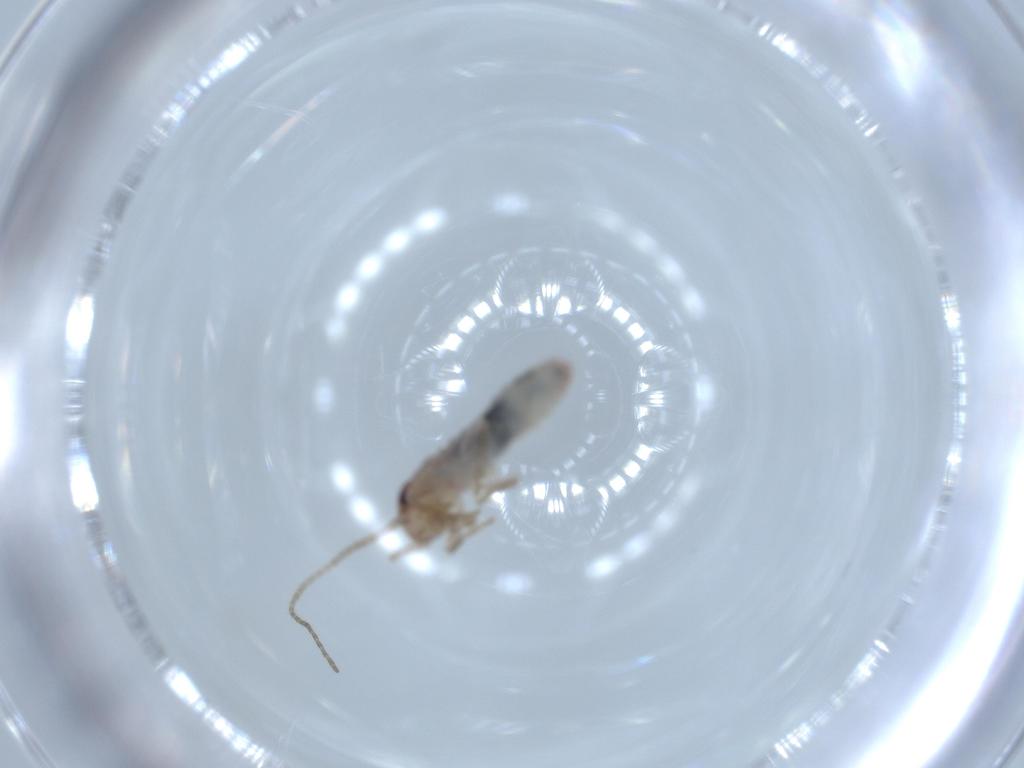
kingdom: Animalia
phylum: Arthropoda
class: Insecta
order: Orthoptera
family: Mogoplistidae
